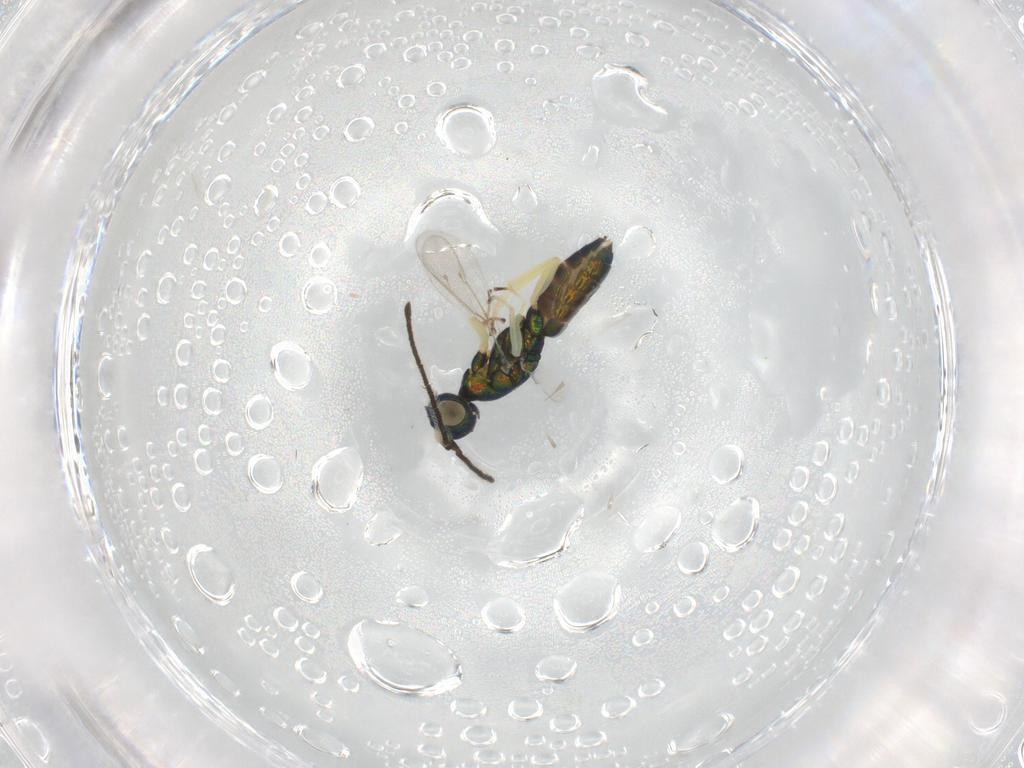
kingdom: Animalia
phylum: Arthropoda
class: Insecta
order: Hymenoptera
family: Pteromalidae
